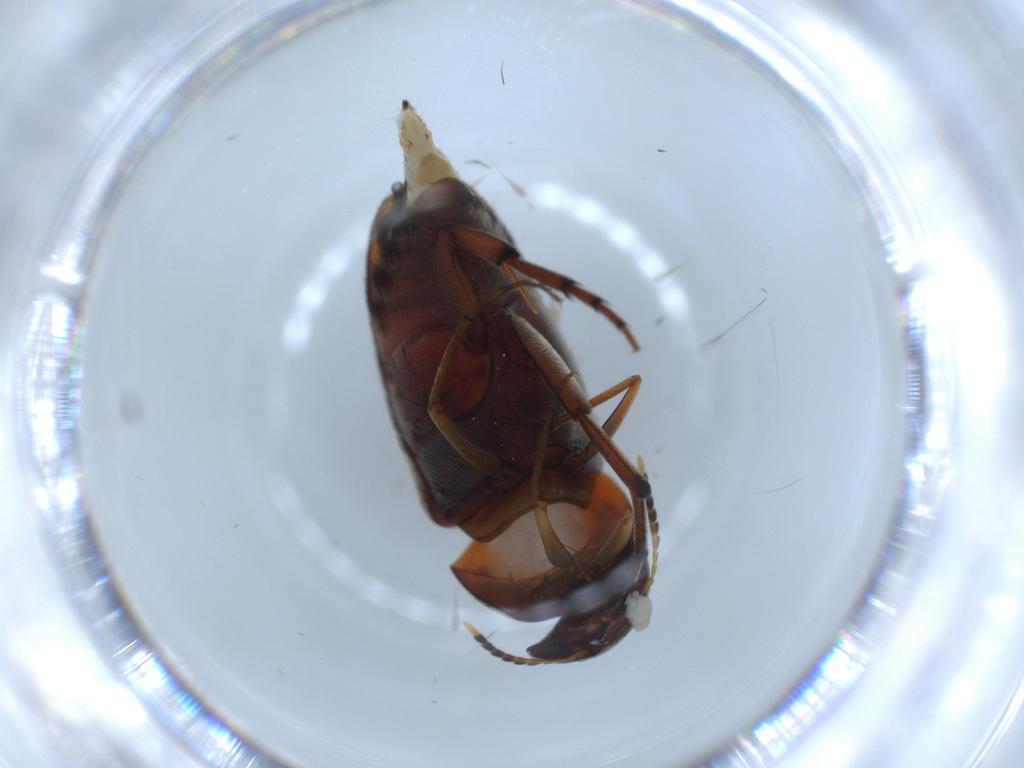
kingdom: Animalia
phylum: Arthropoda
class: Insecta
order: Coleoptera
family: Mordellidae
